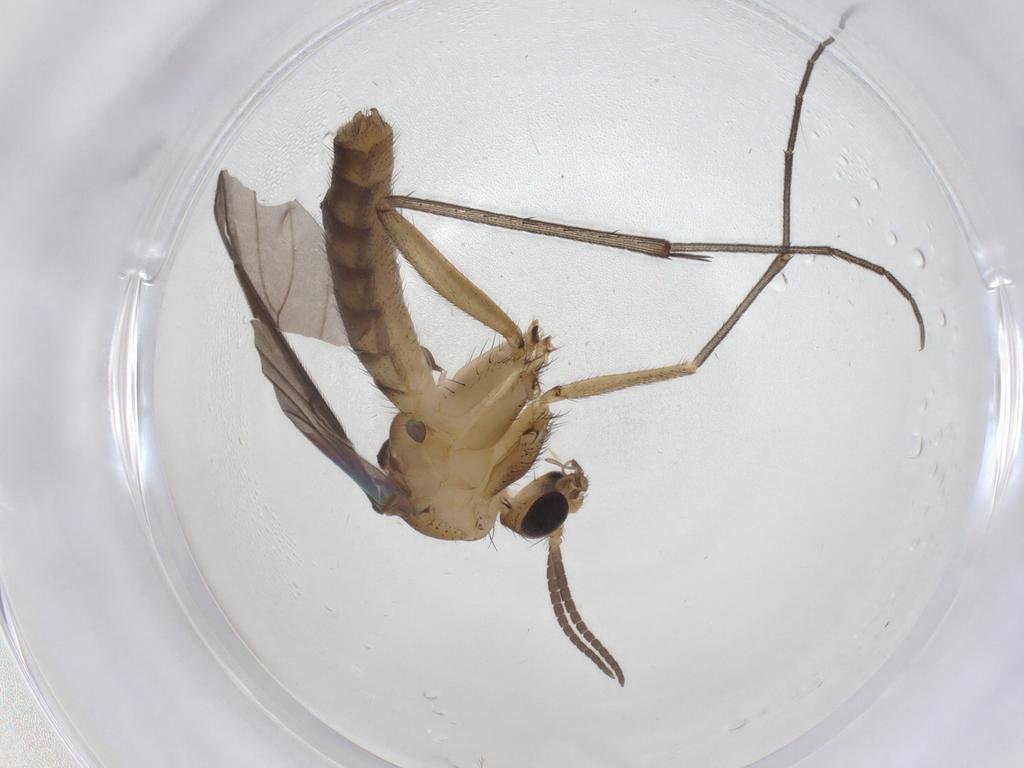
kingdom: Animalia
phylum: Arthropoda
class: Insecta
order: Diptera
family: Mycetophilidae
